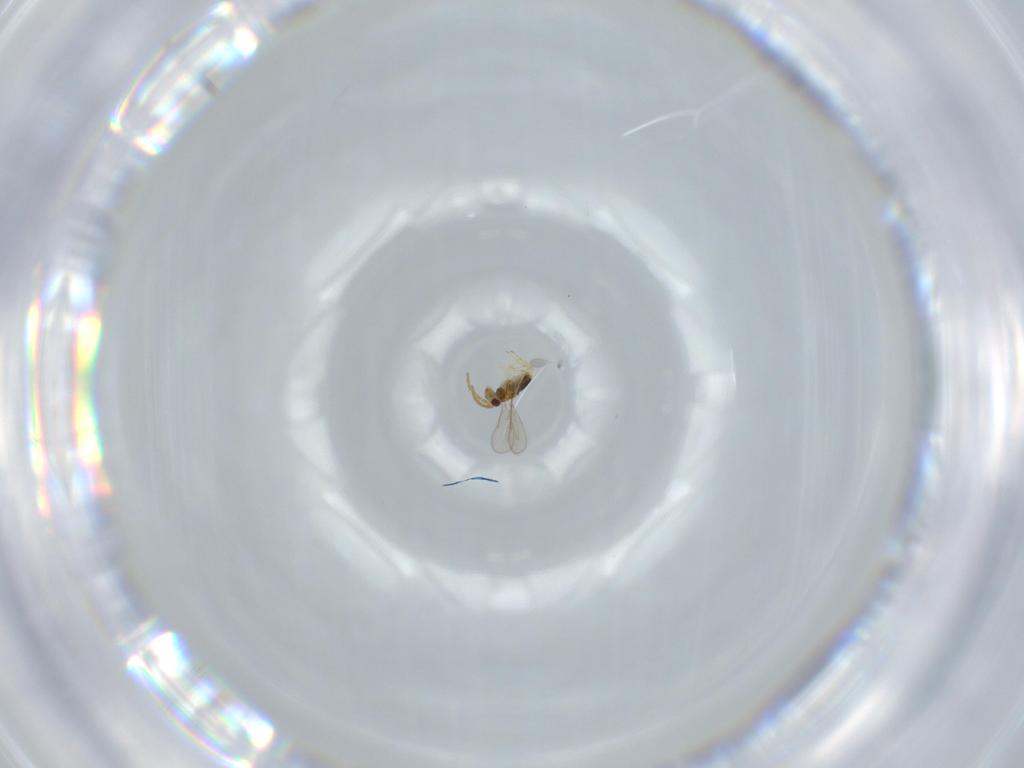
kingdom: Animalia
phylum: Arthropoda
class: Insecta
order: Hymenoptera
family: Aphelinidae
